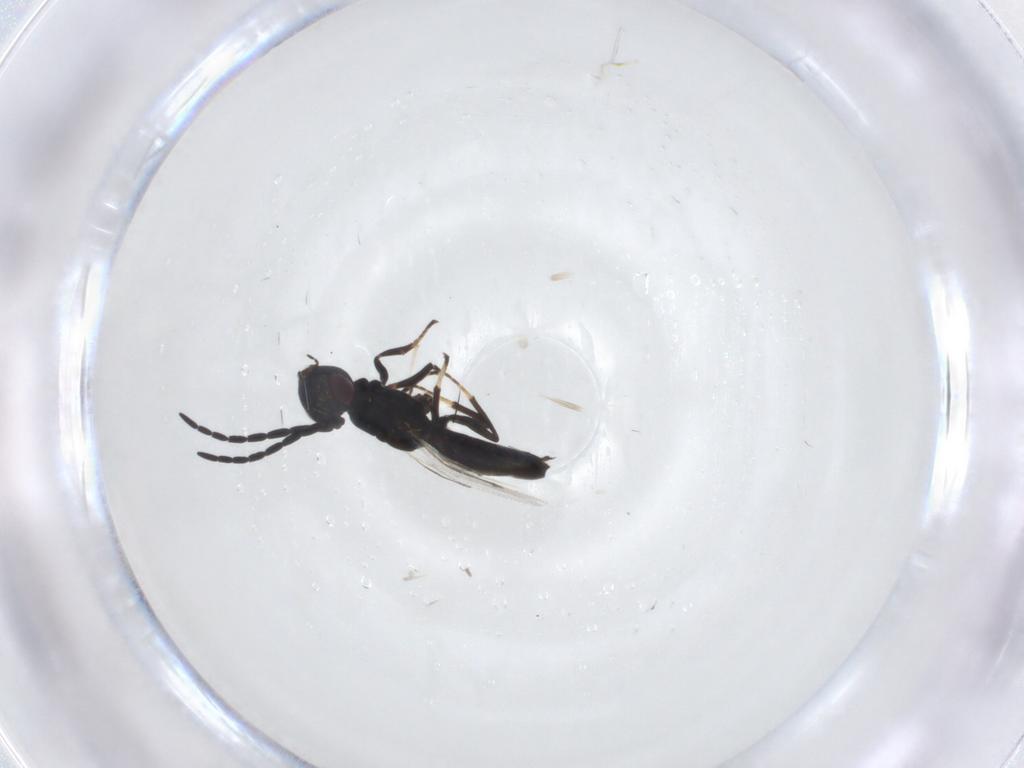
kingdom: Animalia
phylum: Arthropoda
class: Insecta
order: Hymenoptera
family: Eulophidae
